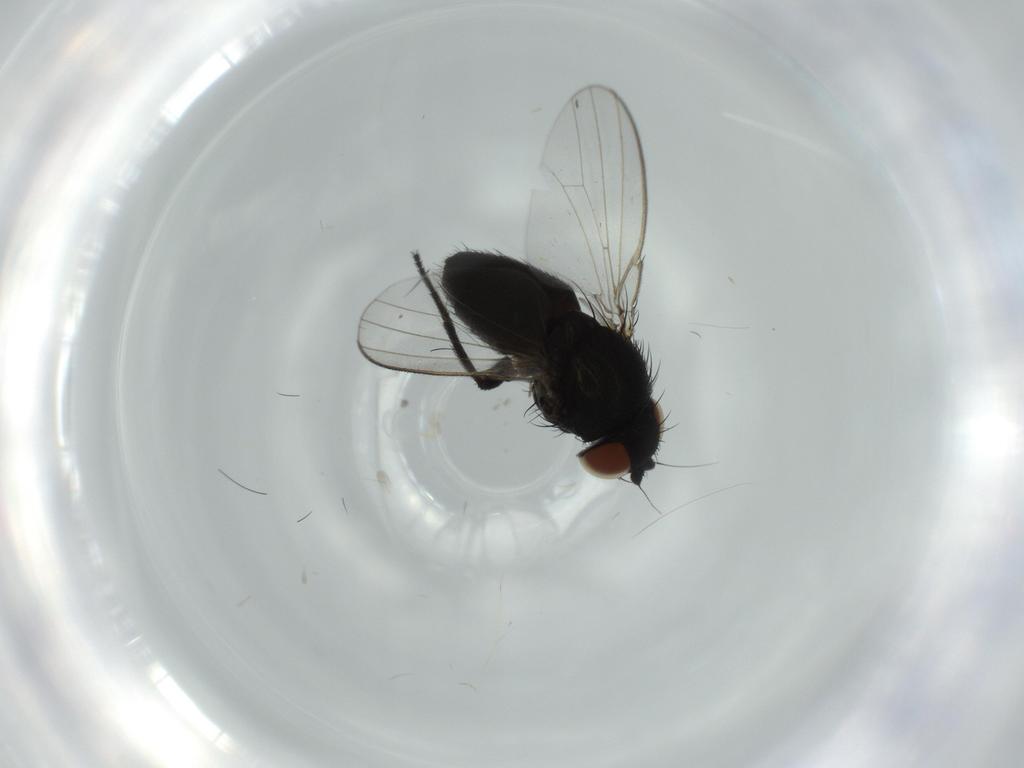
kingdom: Animalia
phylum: Arthropoda
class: Insecta
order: Diptera
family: Milichiidae
